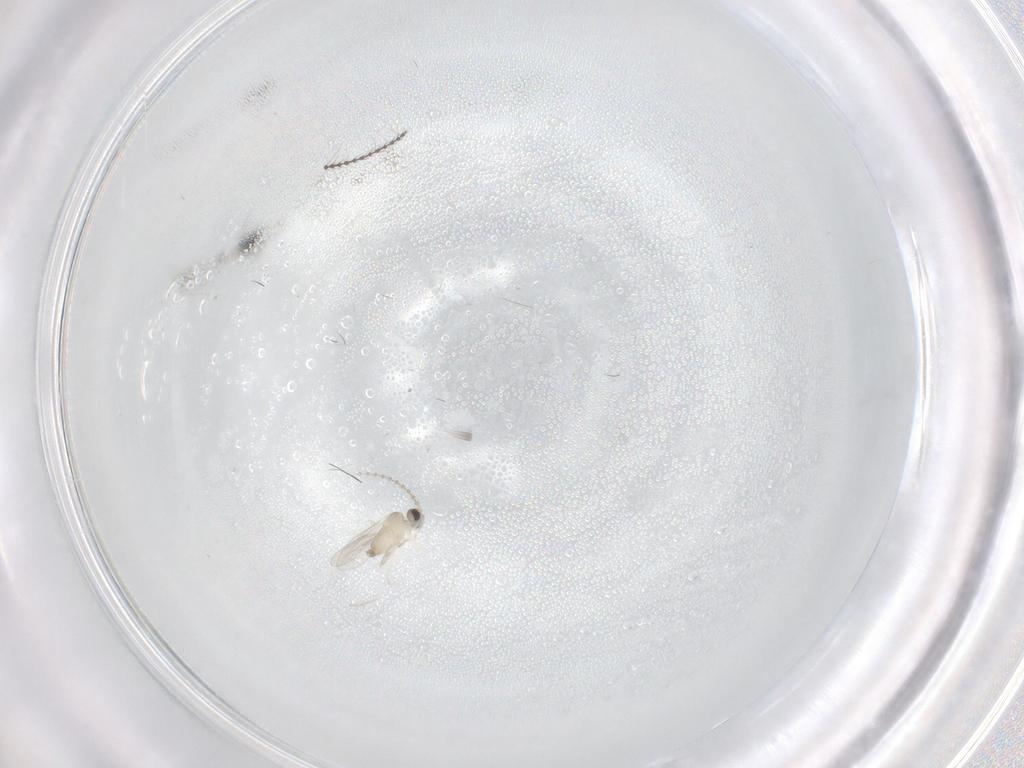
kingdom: Animalia
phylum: Arthropoda
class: Insecta
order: Diptera
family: Cecidomyiidae
